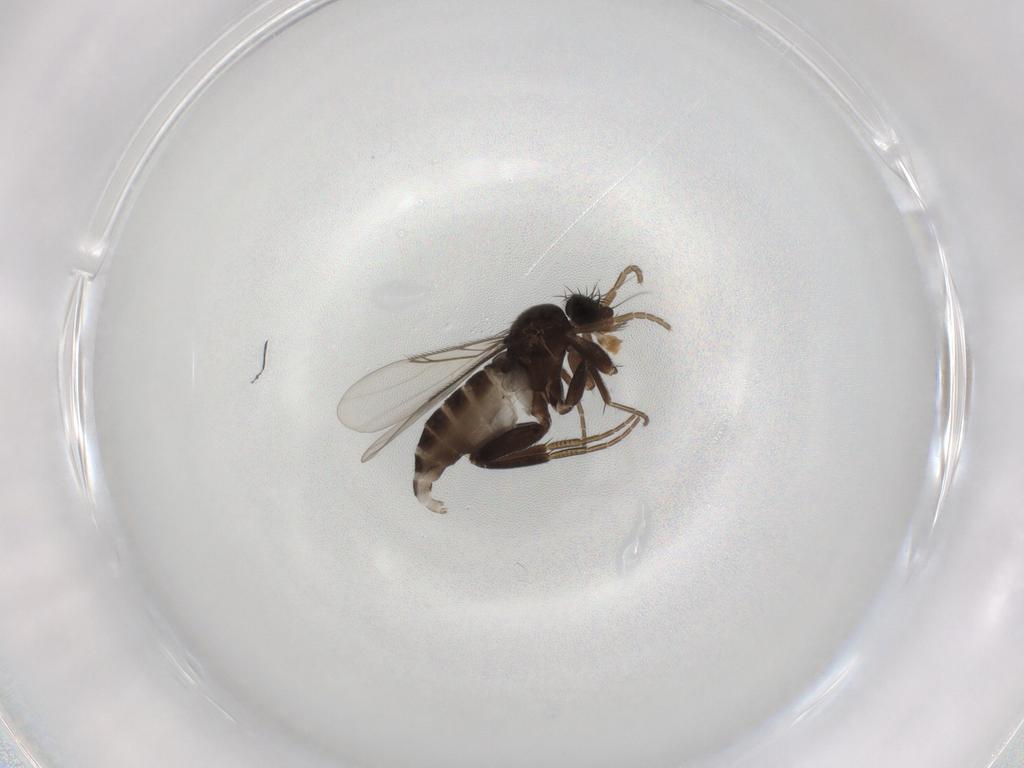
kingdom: Animalia
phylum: Arthropoda
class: Insecta
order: Diptera
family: Phoridae
